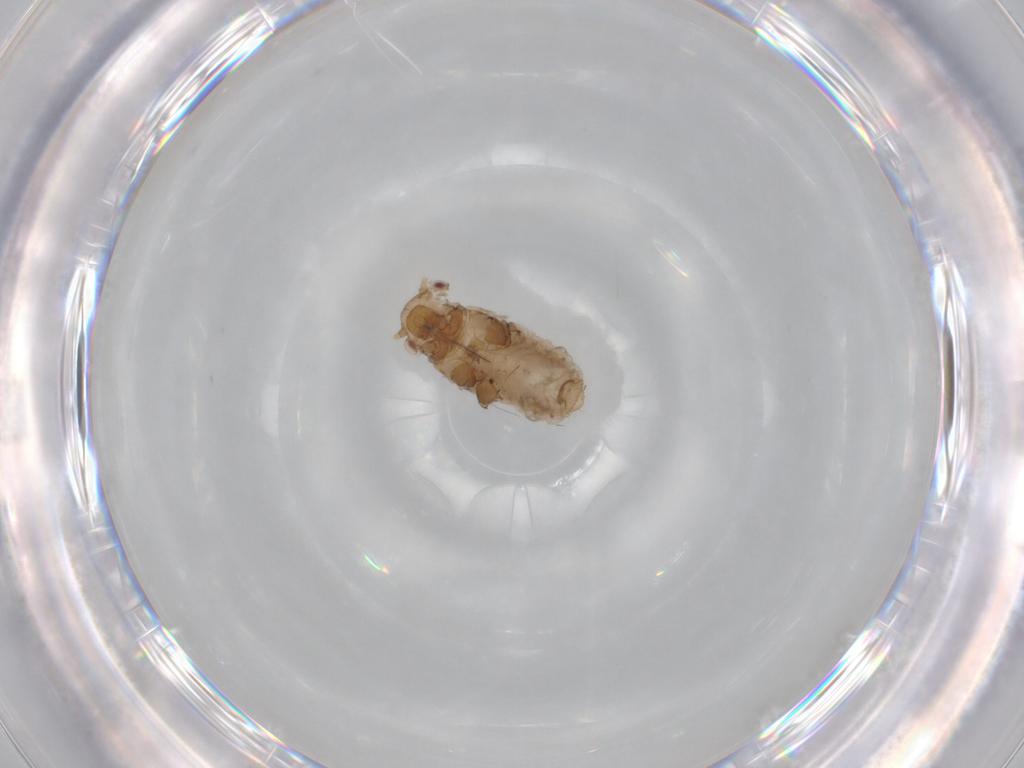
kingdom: Animalia
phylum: Arthropoda
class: Insecta
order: Hemiptera
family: Aphididae
